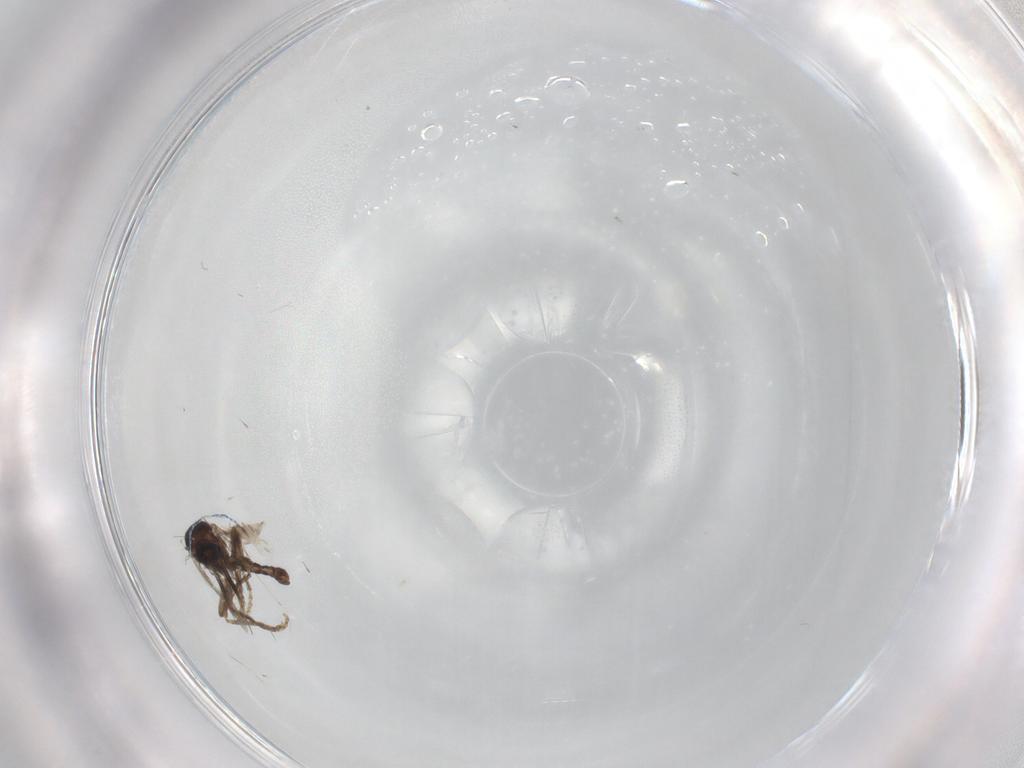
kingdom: Animalia
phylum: Arthropoda
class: Insecta
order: Diptera
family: Ceratopogonidae
